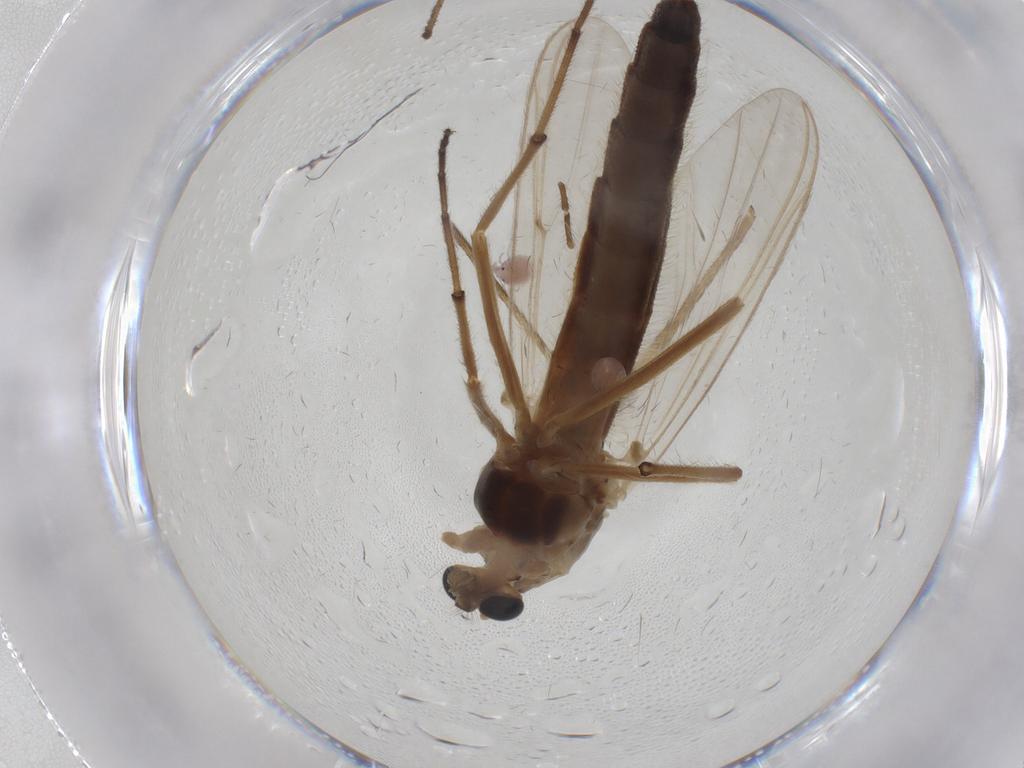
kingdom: Animalia
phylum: Arthropoda
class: Insecta
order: Diptera
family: Chironomidae
